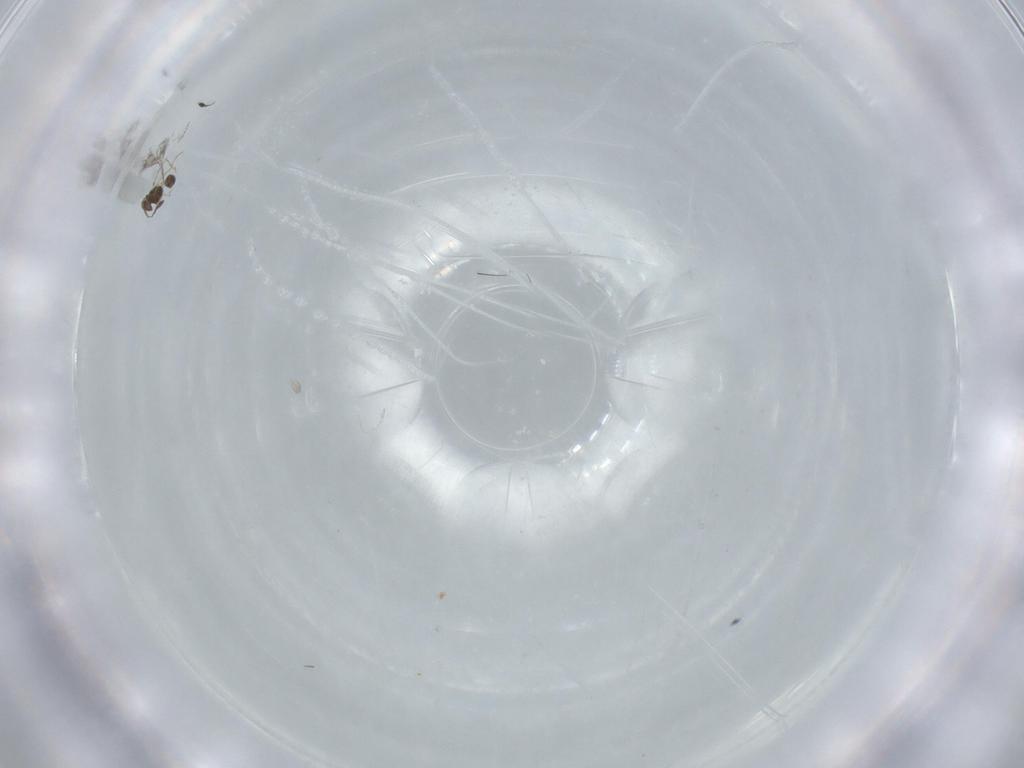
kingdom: Animalia
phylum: Arthropoda
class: Insecta
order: Hymenoptera
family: Mymarommatidae
